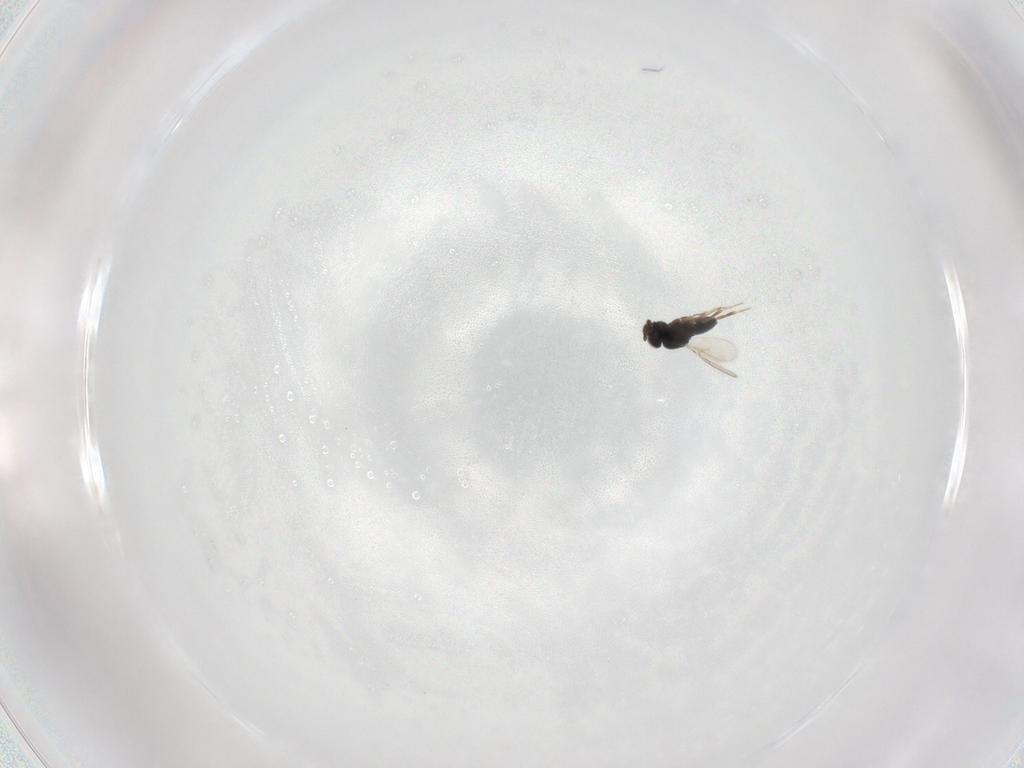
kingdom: Animalia
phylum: Arthropoda
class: Insecta
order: Hymenoptera
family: Scelionidae
